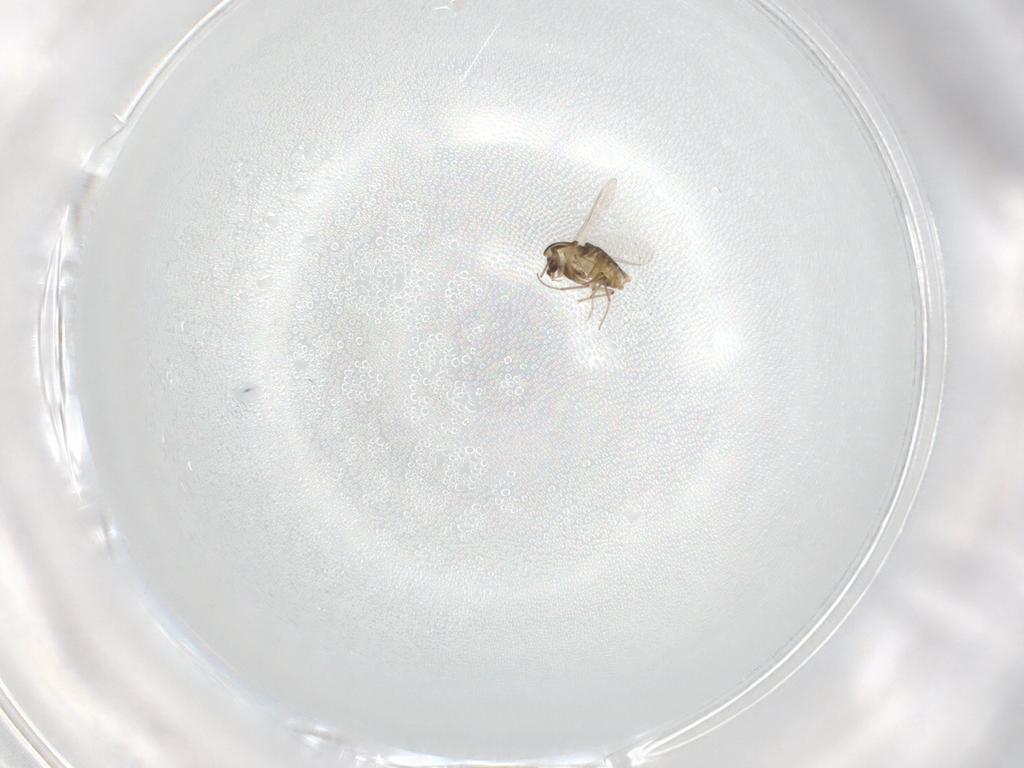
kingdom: Animalia
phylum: Arthropoda
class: Insecta
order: Diptera
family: Chironomidae
